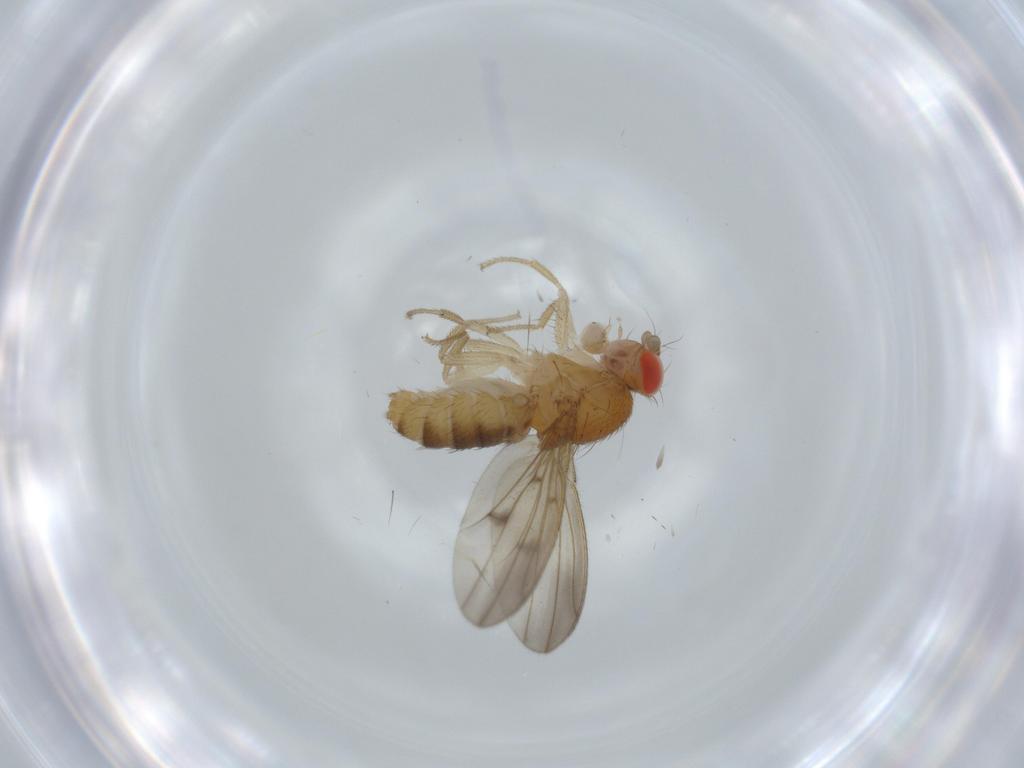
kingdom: Animalia
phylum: Arthropoda
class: Insecta
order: Diptera
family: Drosophilidae
